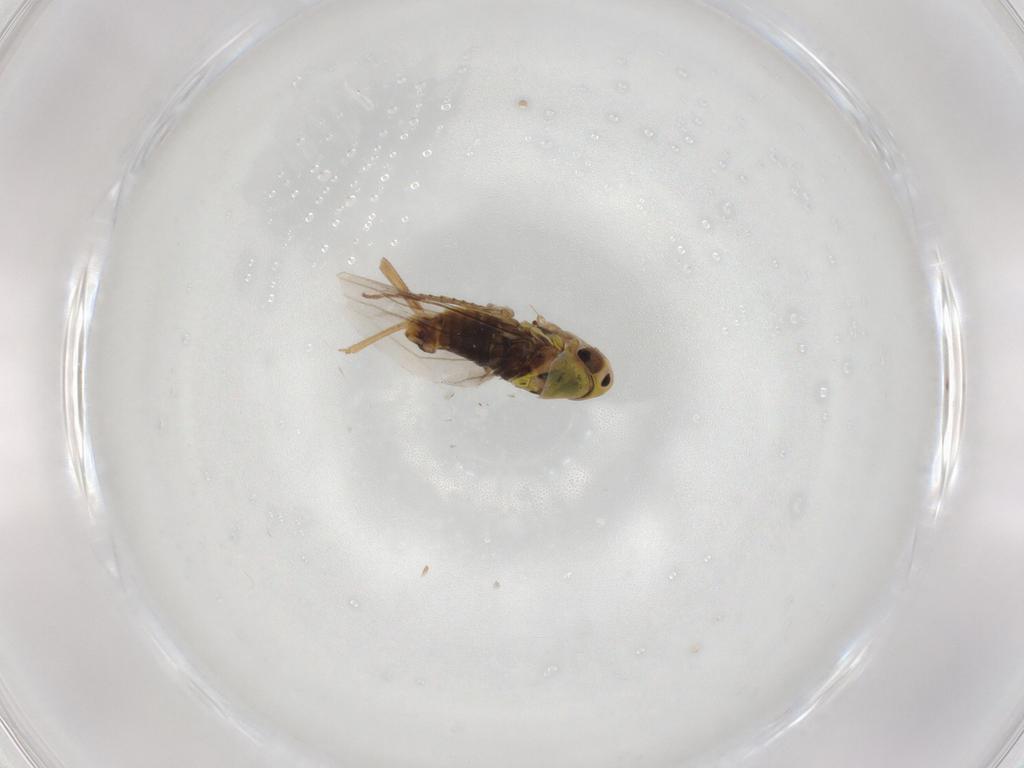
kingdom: Animalia
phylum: Arthropoda
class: Insecta
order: Hemiptera
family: Cicadellidae
